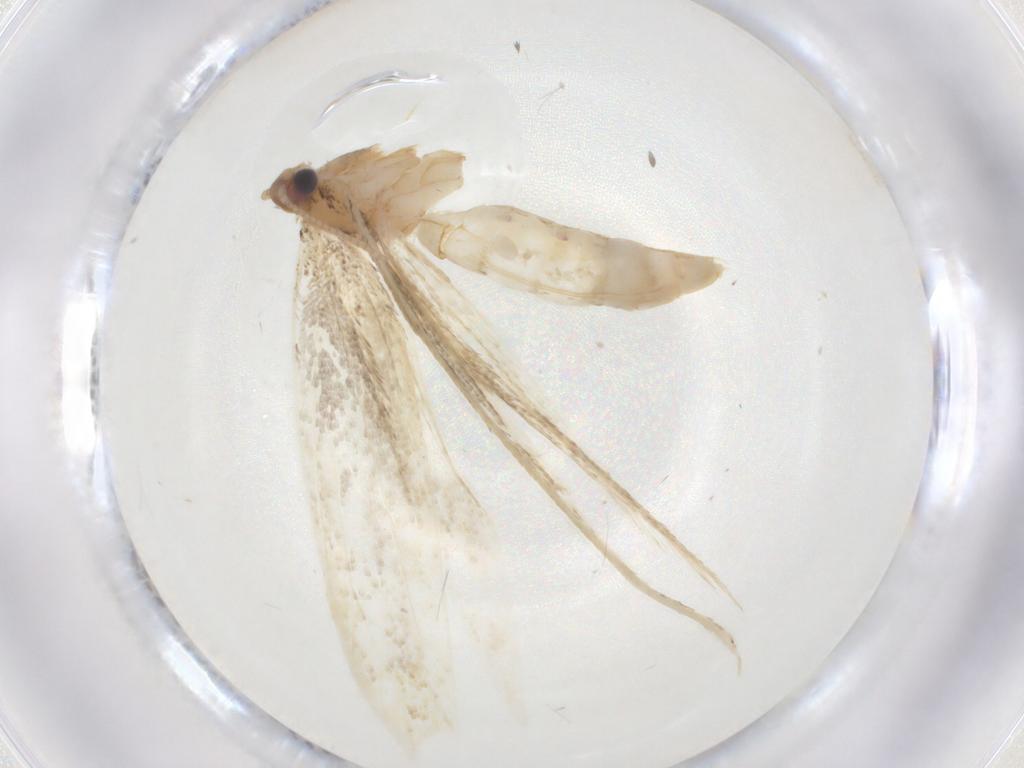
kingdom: Animalia
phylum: Arthropoda
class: Insecta
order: Lepidoptera
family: Tineidae
